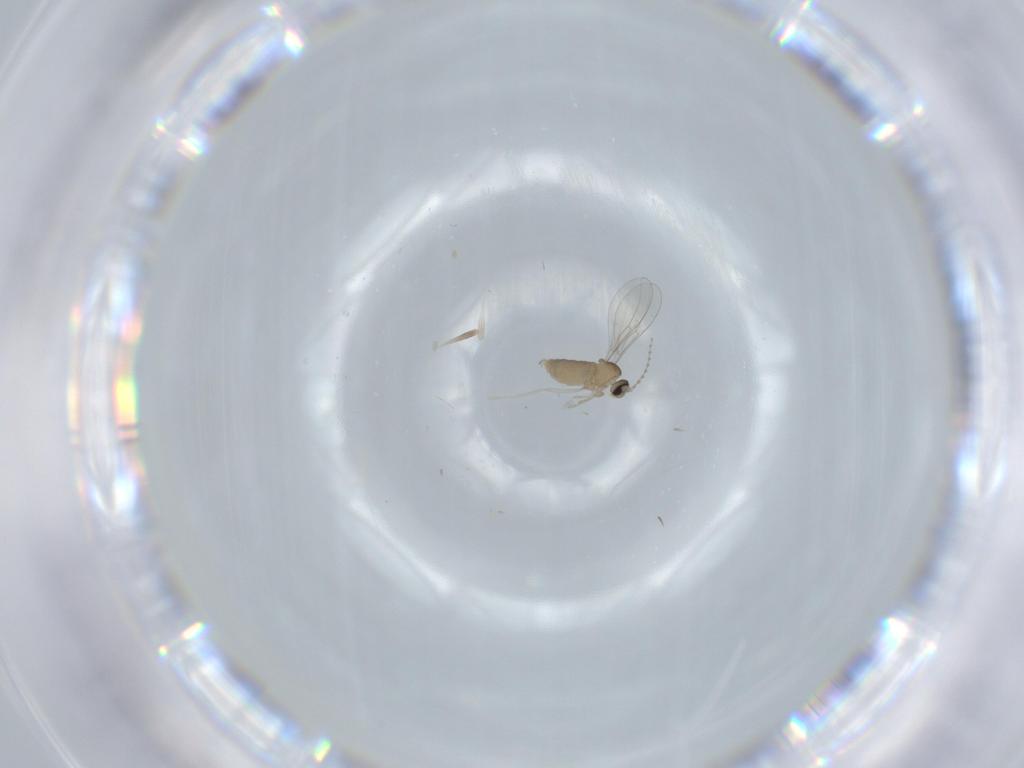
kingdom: Animalia
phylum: Arthropoda
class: Insecta
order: Diptera
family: Cecidomyiidae
